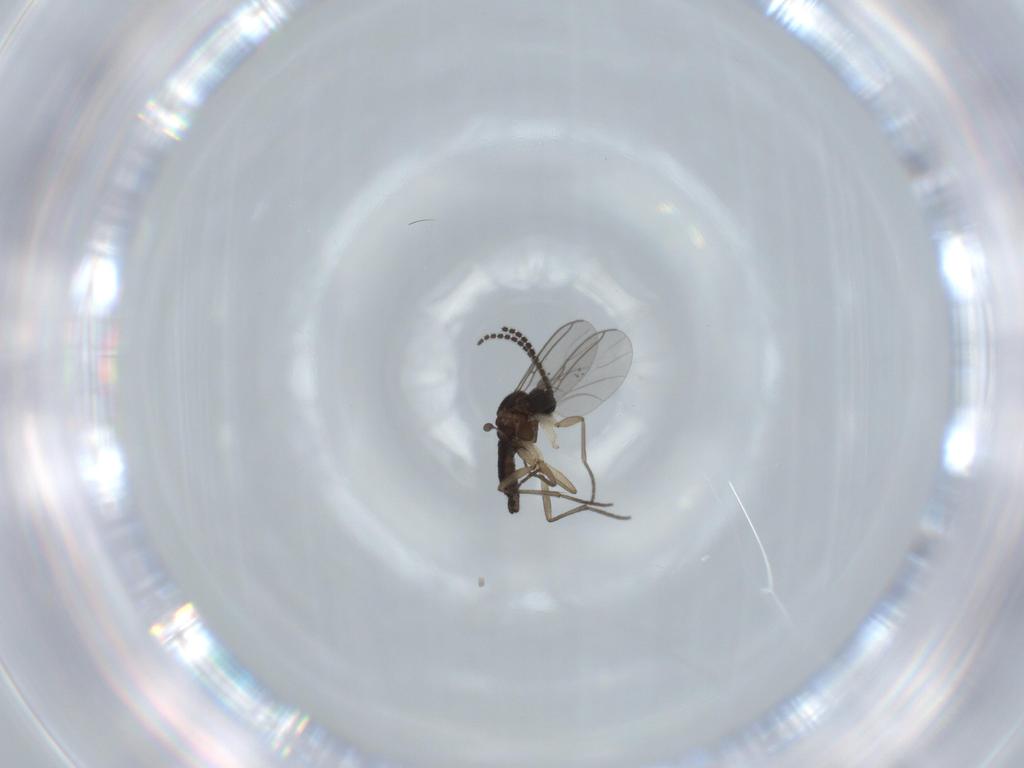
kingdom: Animalia
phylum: Arthropoda
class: Insecta
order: Diptera
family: Sciaridae
